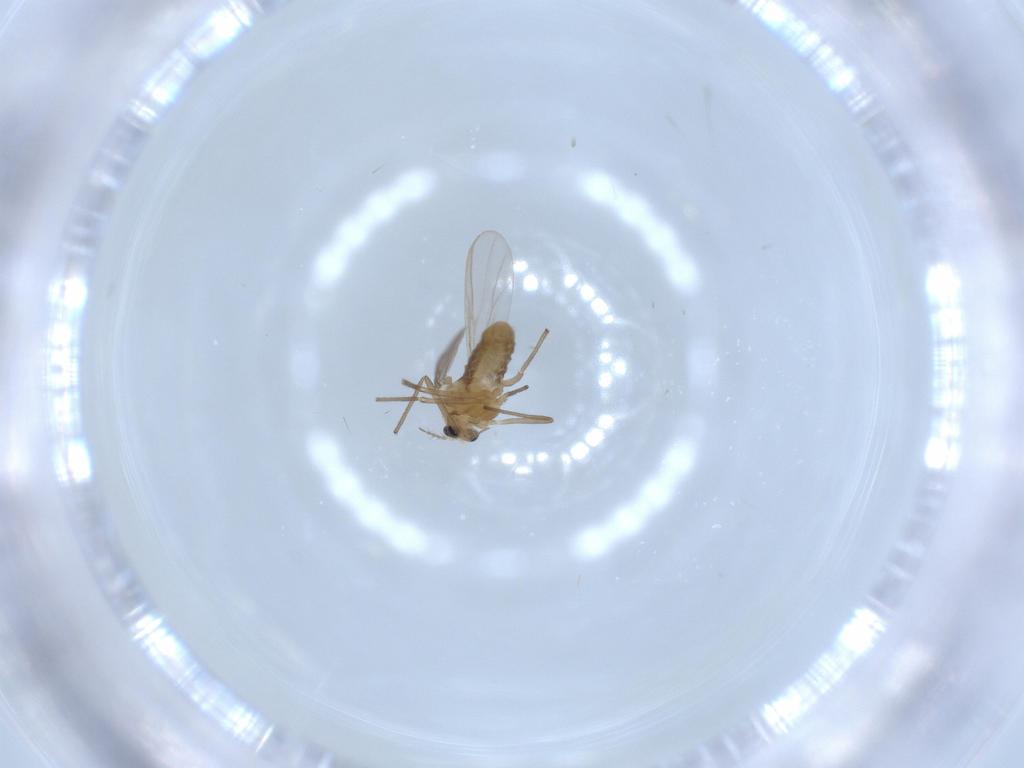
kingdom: Animalia
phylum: Arthropoda
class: Insecta
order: Diptera
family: Chironomidae
